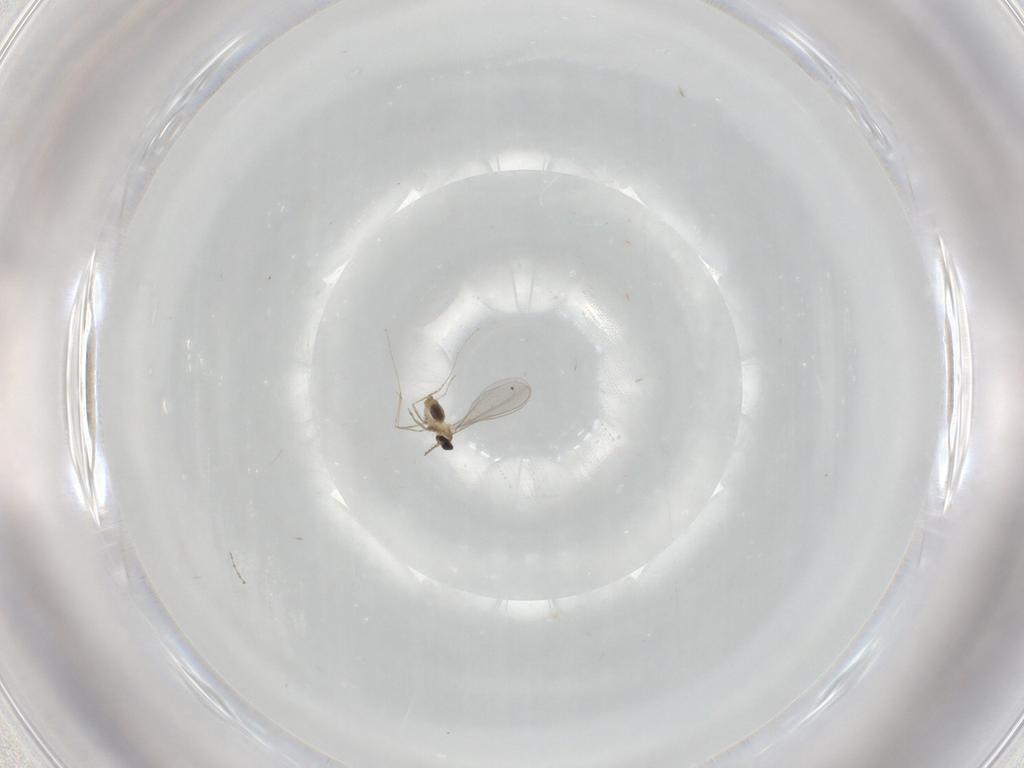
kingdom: Animalia
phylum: Arthropoda
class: Insecta
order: Diptera
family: Cecidomyiidae
